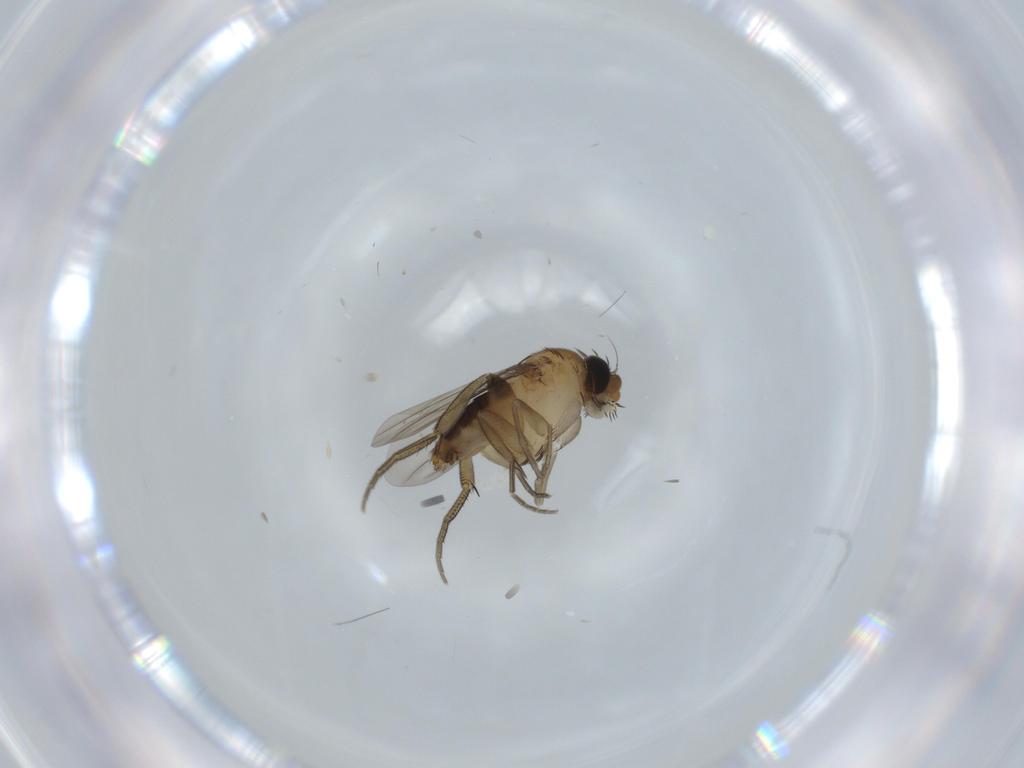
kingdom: Animalia
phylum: Arthropoda
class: Insecta
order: Diptera
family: Phoridae
